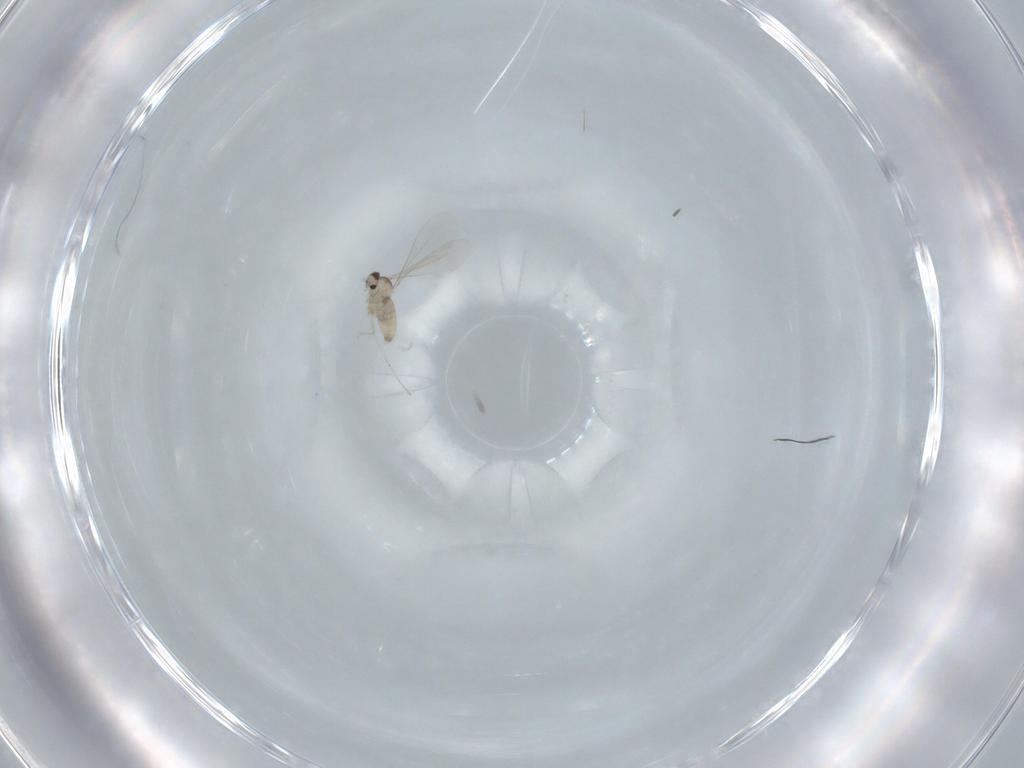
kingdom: Animalia
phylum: Arthropoda
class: Insecta
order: Diptera
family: Cecidomyiidae
